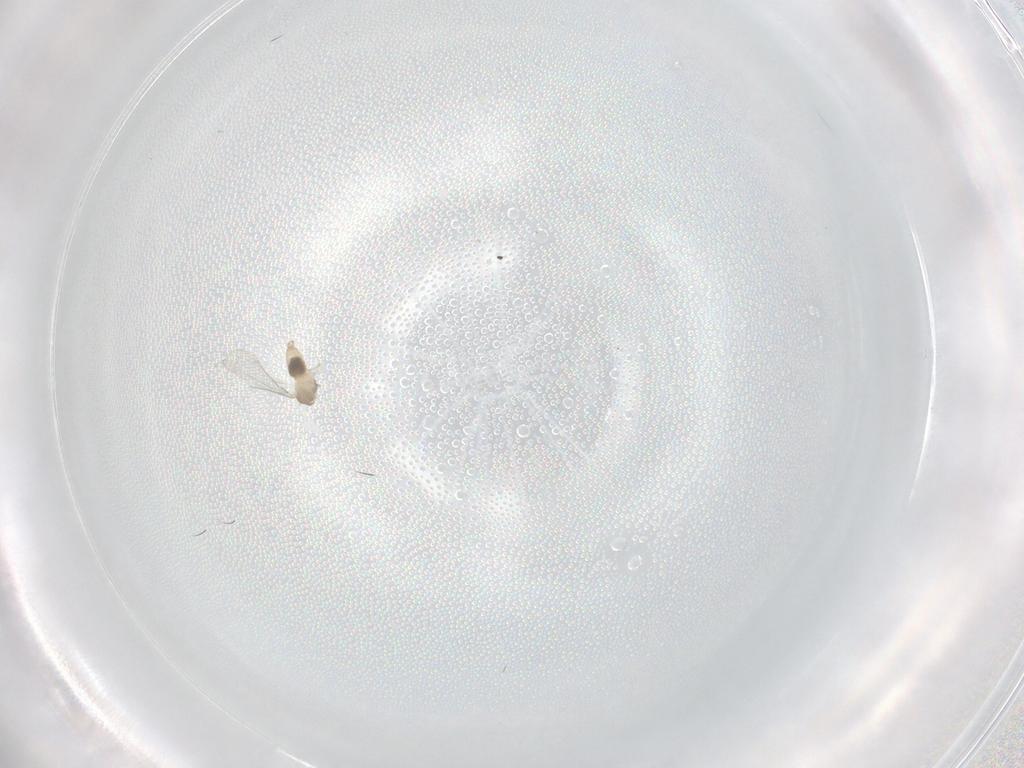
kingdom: Animalia
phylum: Arthropoda
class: Insecta
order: Diptera
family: Cecidomyiidae
